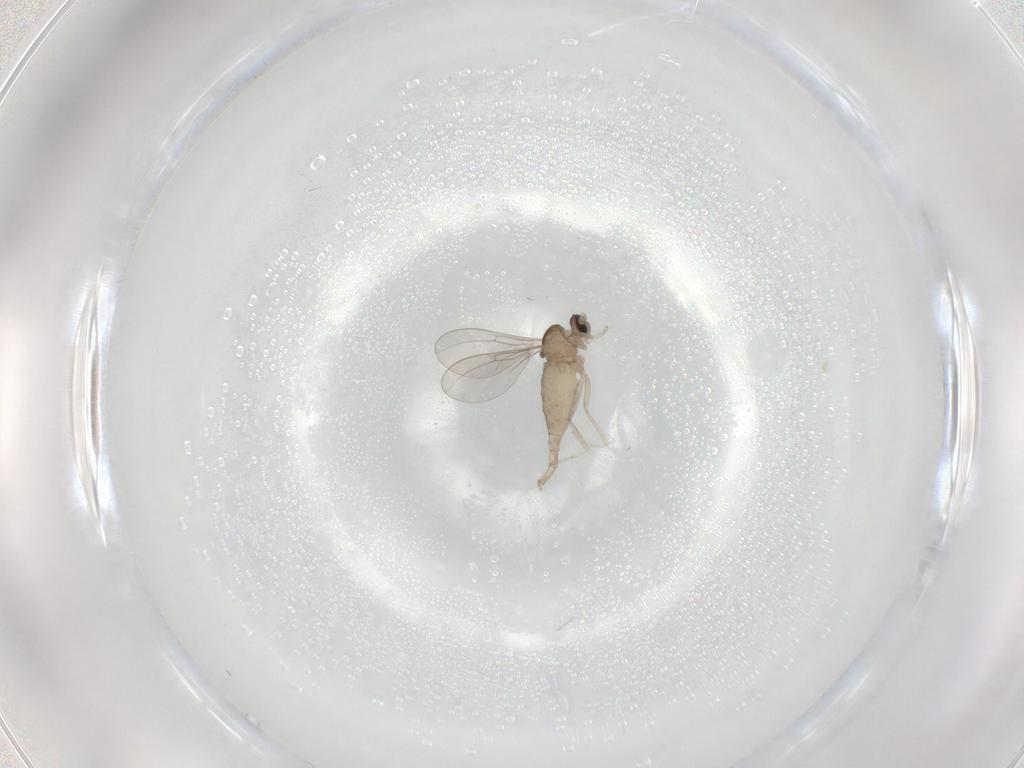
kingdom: Animalia
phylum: Arthropoda
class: Insecta
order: Diptera
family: Cecidomyiidae
